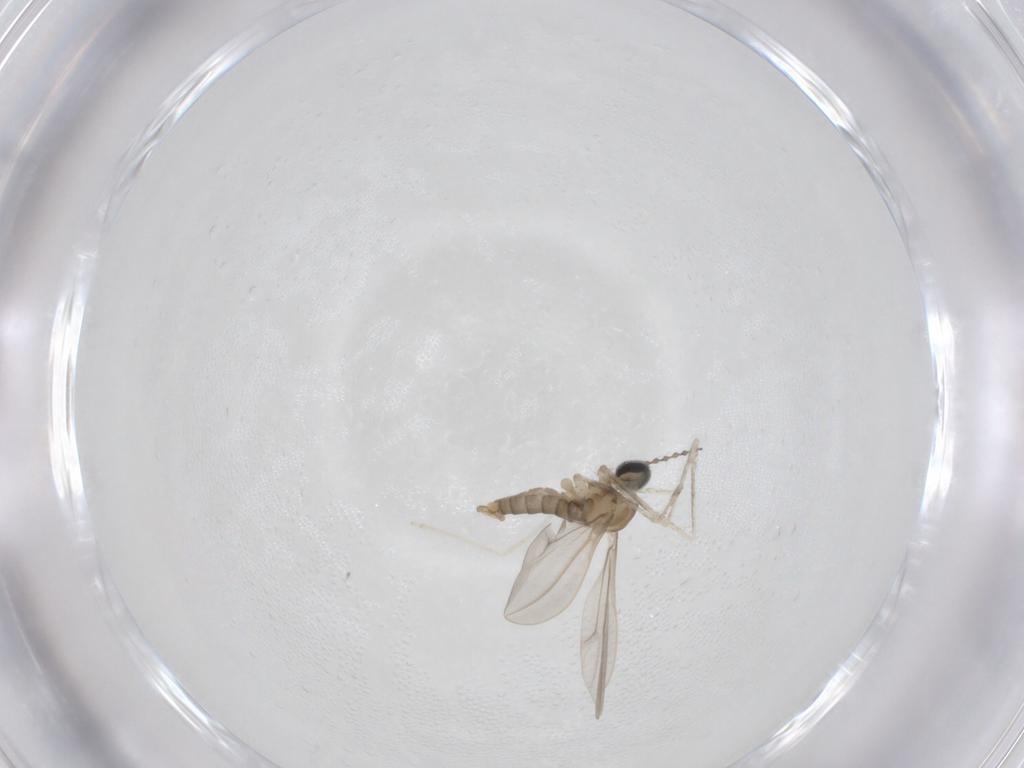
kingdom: Animalia
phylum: Arthropoda
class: Insecta
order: Diptera
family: Cecidomyiidae
